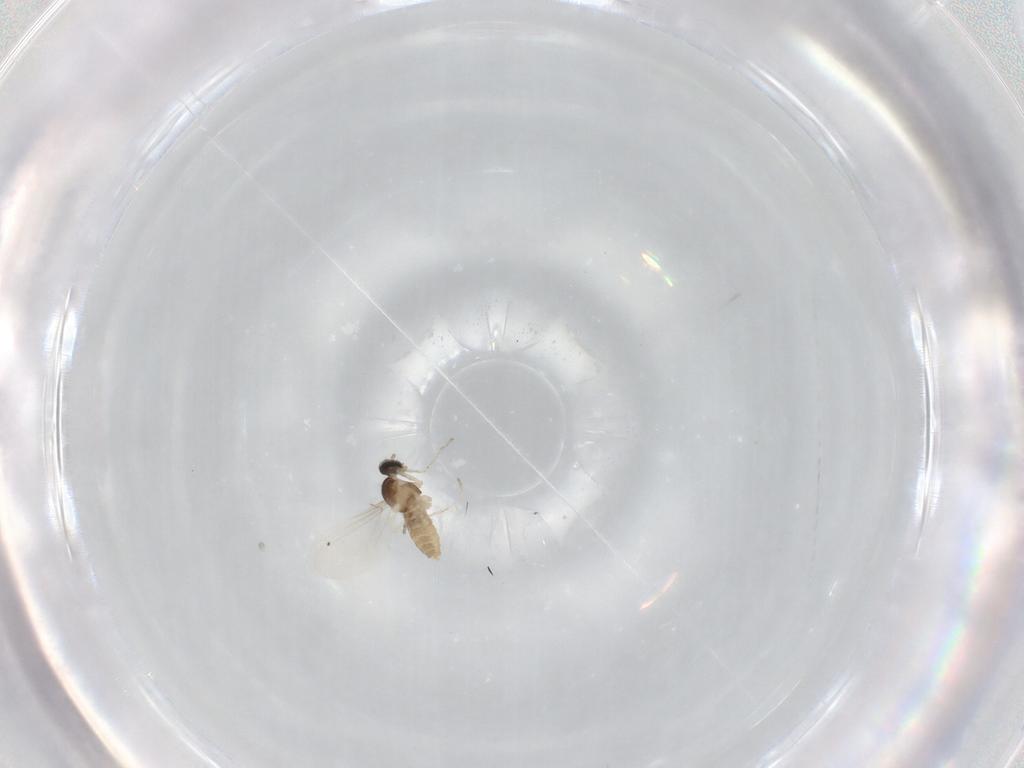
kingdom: Animalia
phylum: Arthropoda
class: Insecta
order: Diptera
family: Cecidomyiidae
